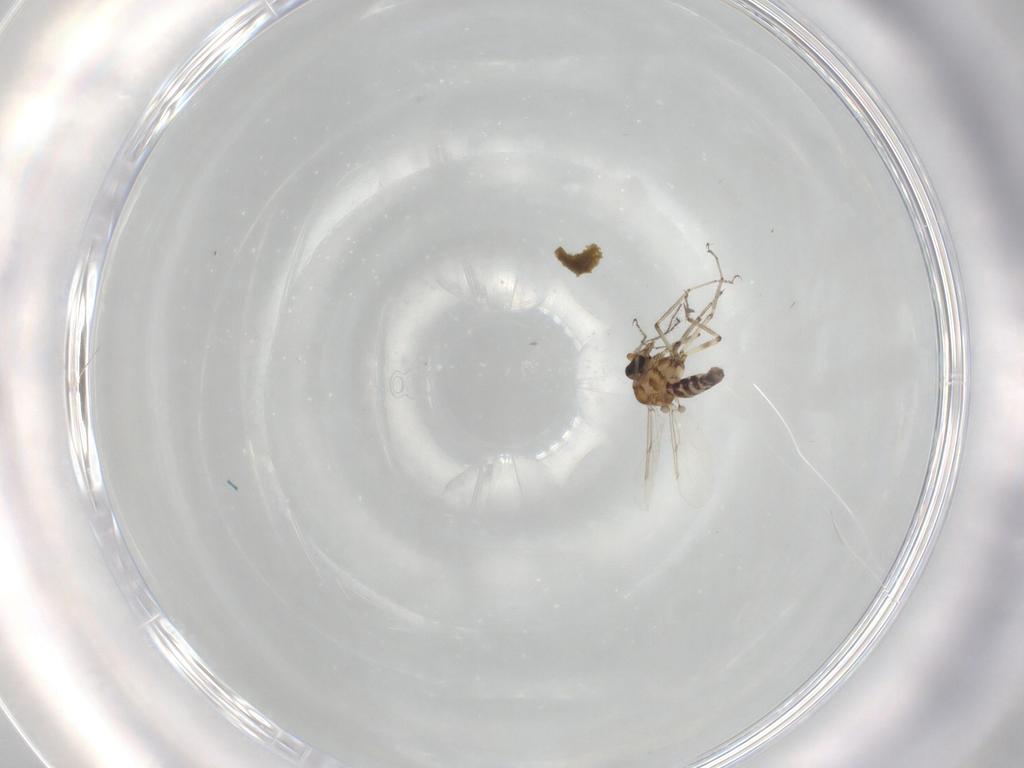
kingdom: Animalia
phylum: Arthropoda
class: Insecta
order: Diptera
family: Ceratopogonidae
